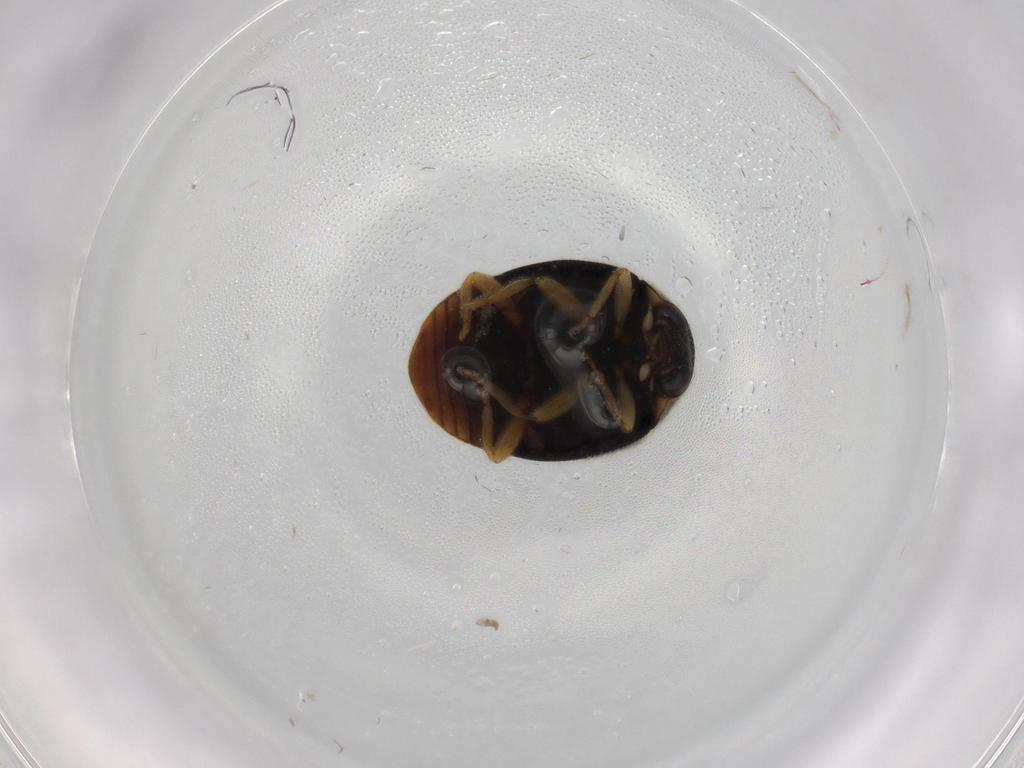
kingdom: Animalia
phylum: Arthropoda
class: Insecta
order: Coleoptera
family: Coccinellidae
